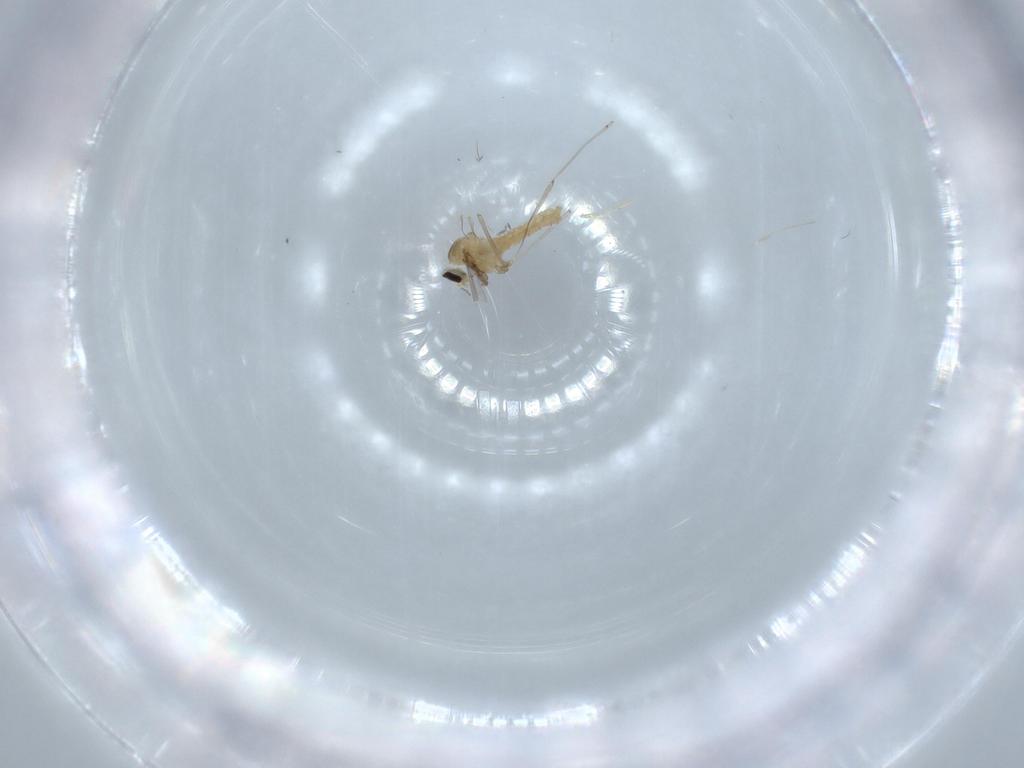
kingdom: Animalia
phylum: Arthropoda
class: Insecta
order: Diptera
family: Cecidomyiidae
